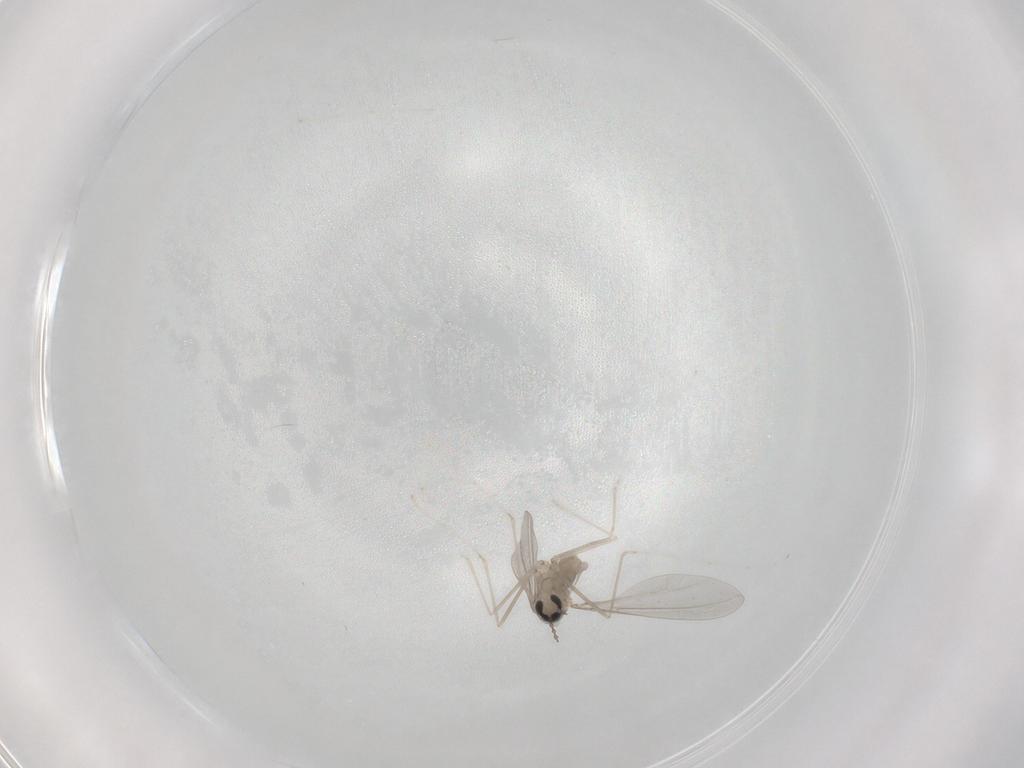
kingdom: Animalia
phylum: Arthropoda
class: Insecta
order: Diptera
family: Cecidomyiidae
